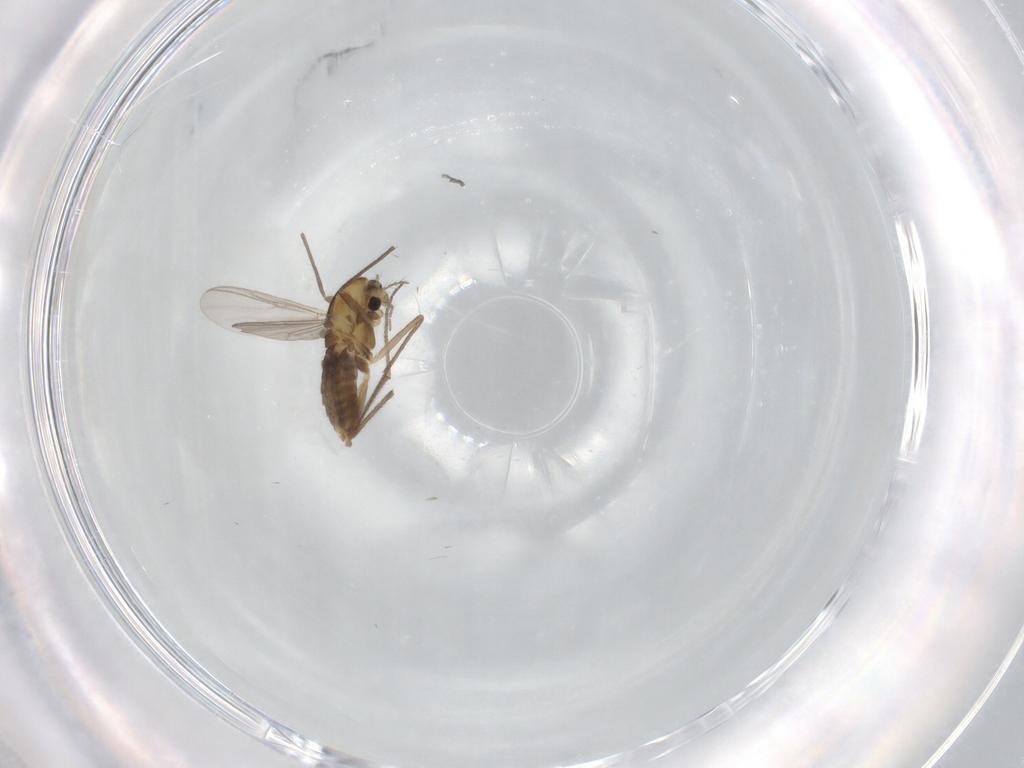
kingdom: Animalia
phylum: Arthropoda
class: Insecta
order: Diptera
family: Chironomidae
